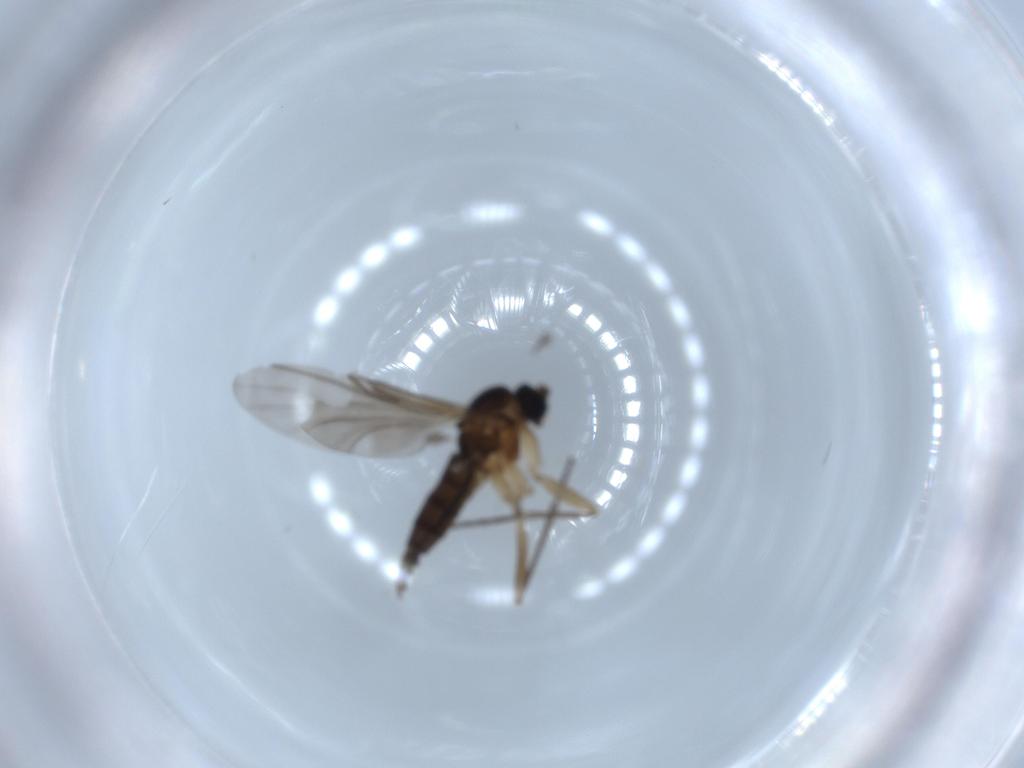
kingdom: Animalia
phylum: Arthropoda
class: Insecta
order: Diptera
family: Sciaridae
